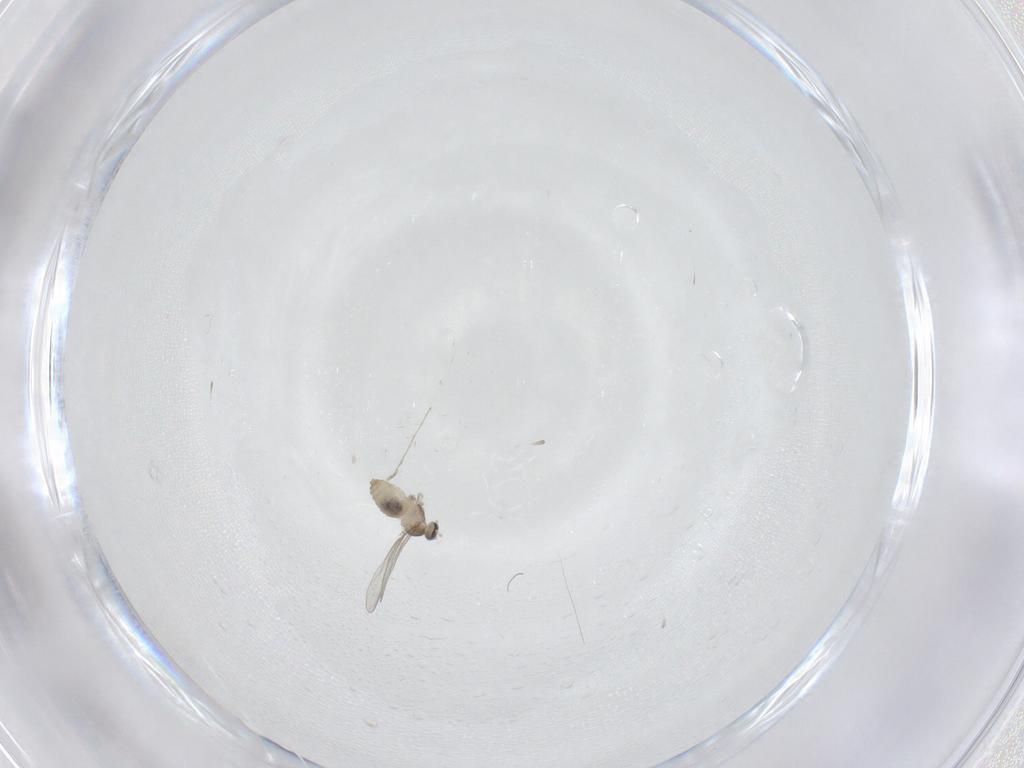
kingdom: Animalia
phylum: Arthropoda
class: Insecta
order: Diptera
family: Cecidomyiidae
